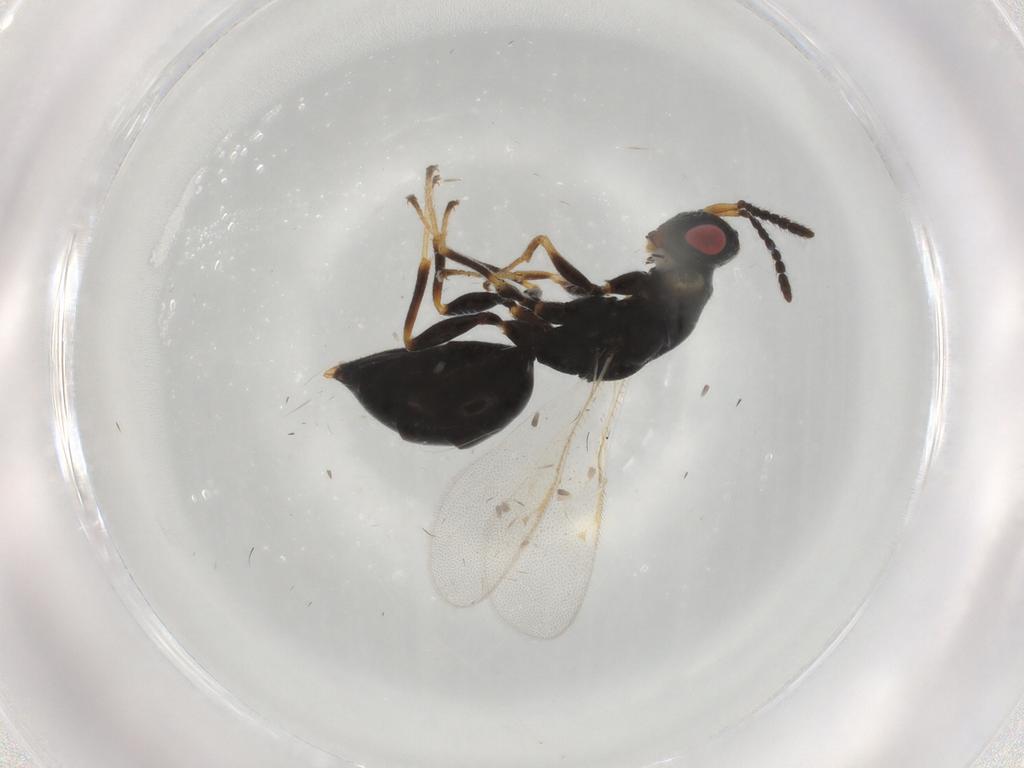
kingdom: Animalia
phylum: Arthropoda
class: Insecta
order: Hymenoptera
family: Eurytomidae
